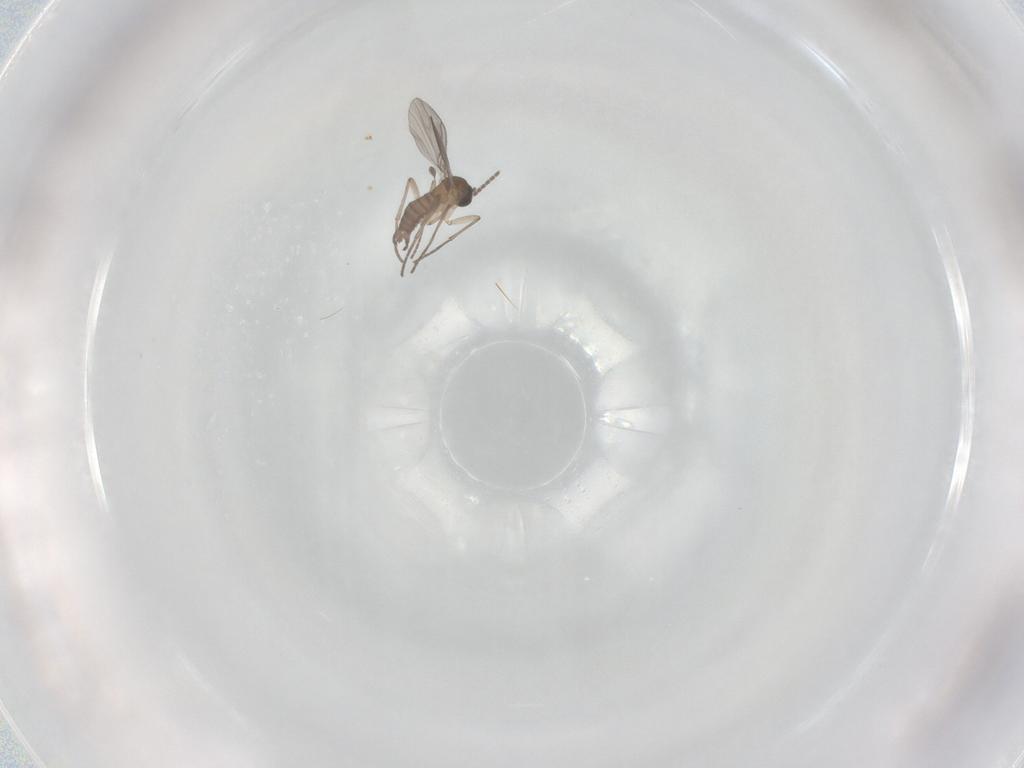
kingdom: Animalia
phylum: Arthropoda
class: Insecta
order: Diptera
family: Sciaridae
